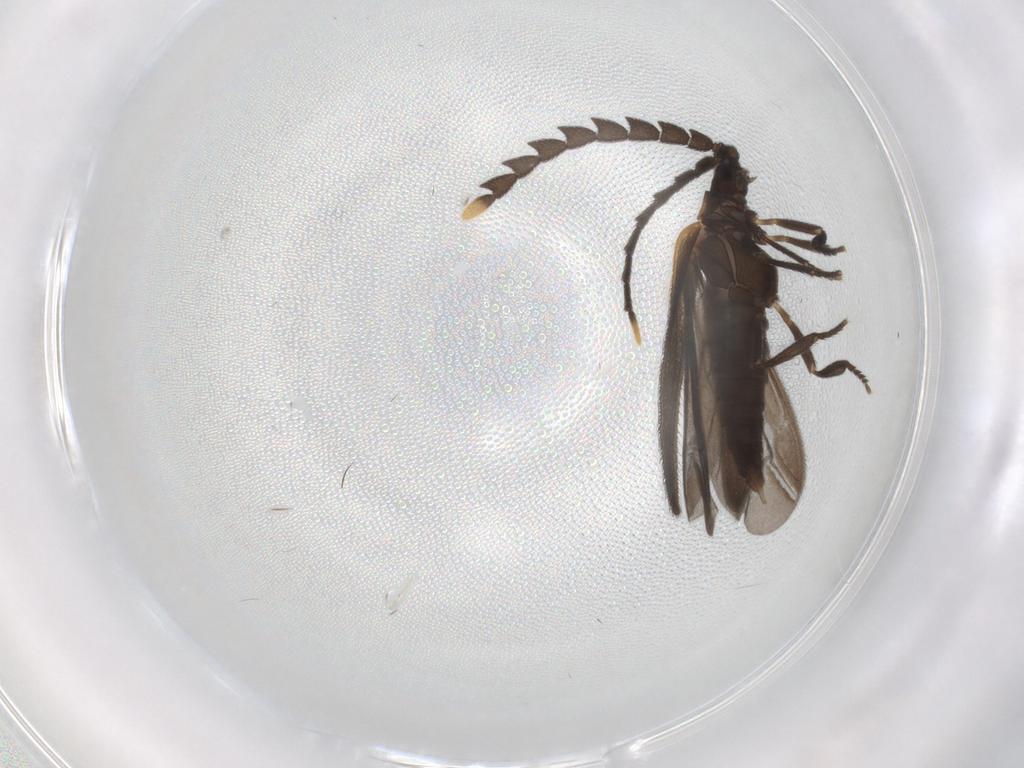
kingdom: Animalia
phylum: Arthropoda
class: Insecta
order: Coleoptera
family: Lycidae
